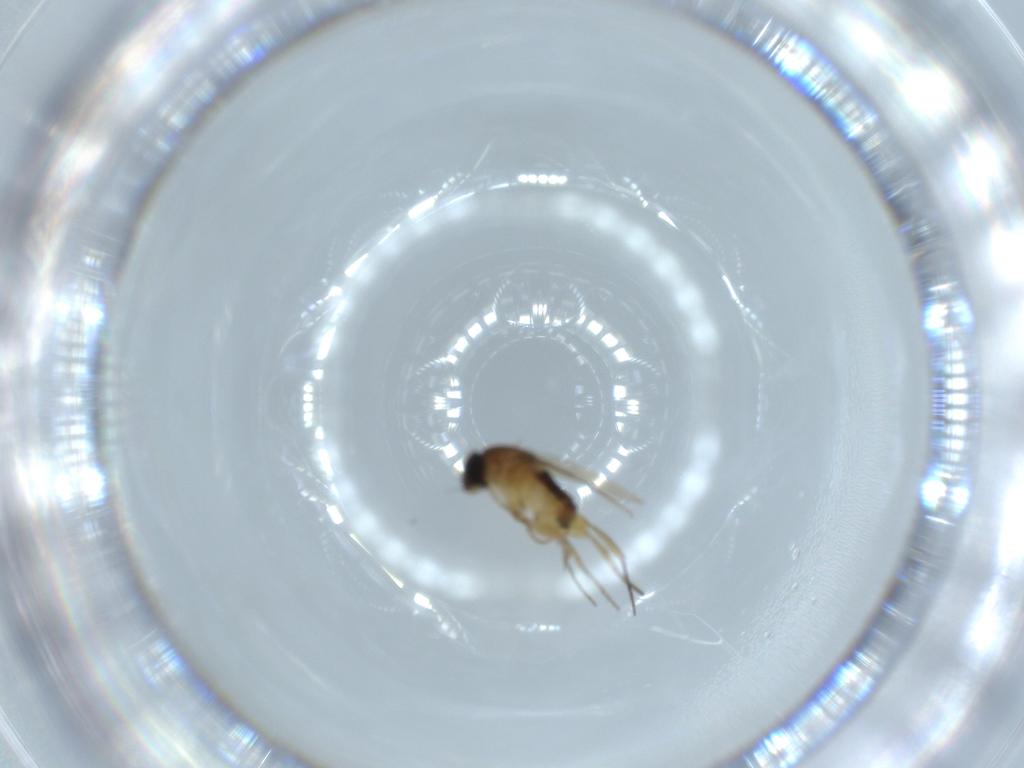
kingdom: Animalia
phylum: Arthropoda
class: Insecta
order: Diptera
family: Phoridae
